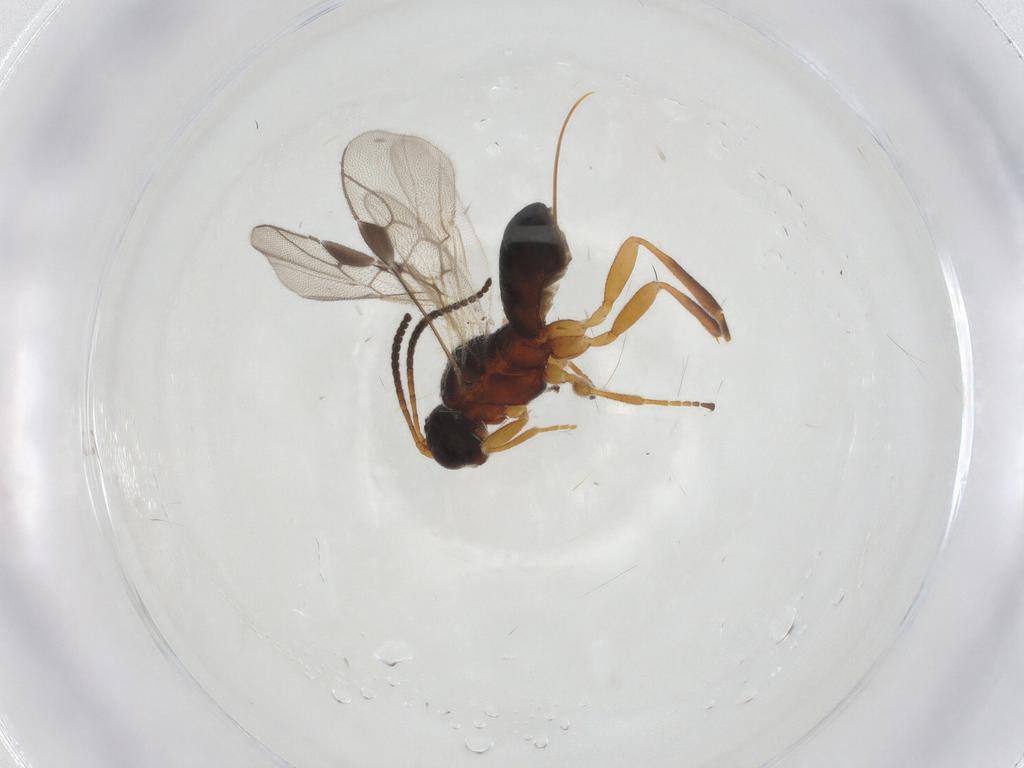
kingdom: Animalia
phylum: Arthropoda
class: Insecta
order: Hymenoptera
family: Braconidae
